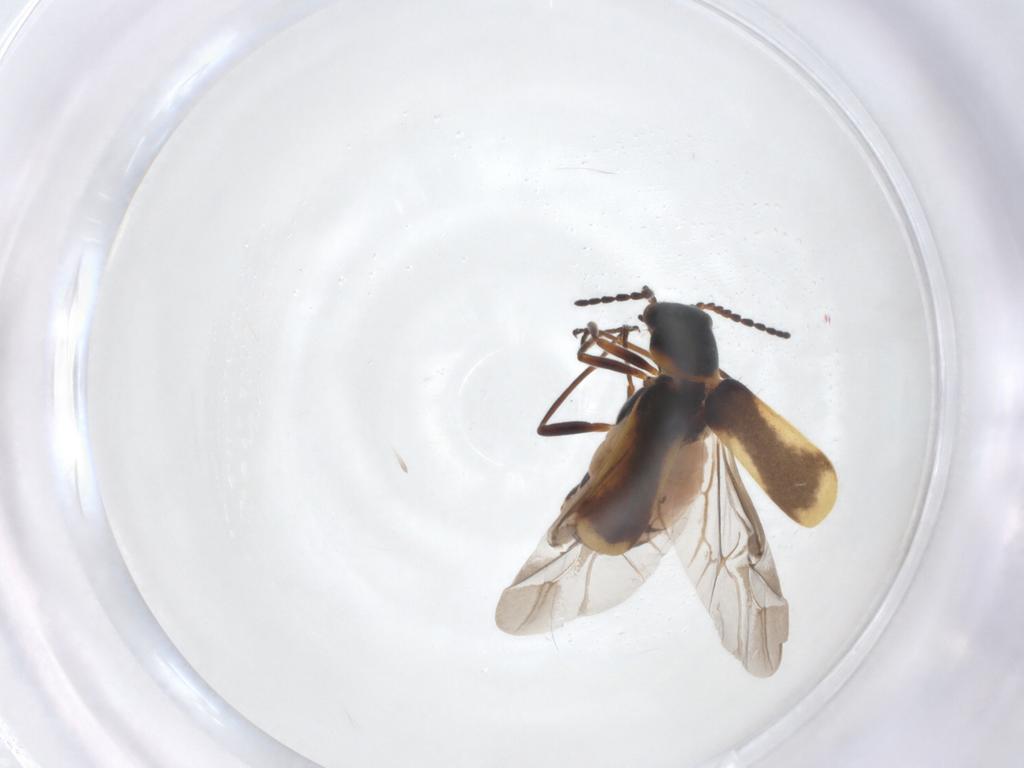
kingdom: Animalia
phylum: Arthropoda
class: Insecta
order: Coleoptera
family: Melyridae
